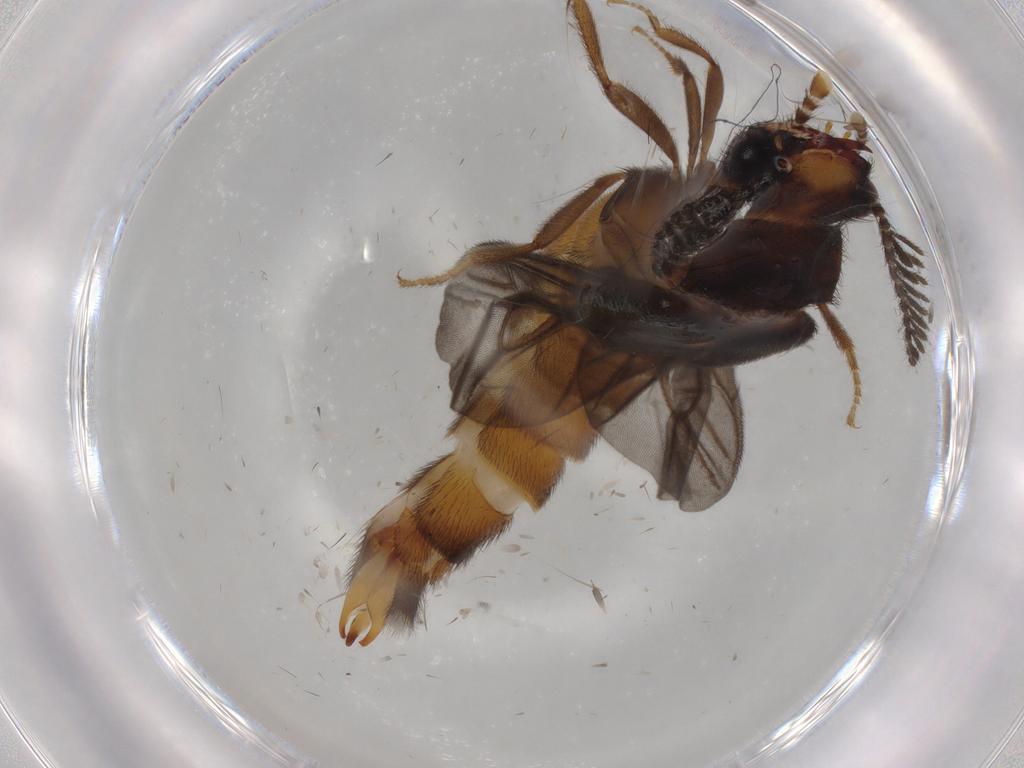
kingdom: Animalia
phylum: Arthropoda
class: Insecta
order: Coleoptera
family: Phengodidae
